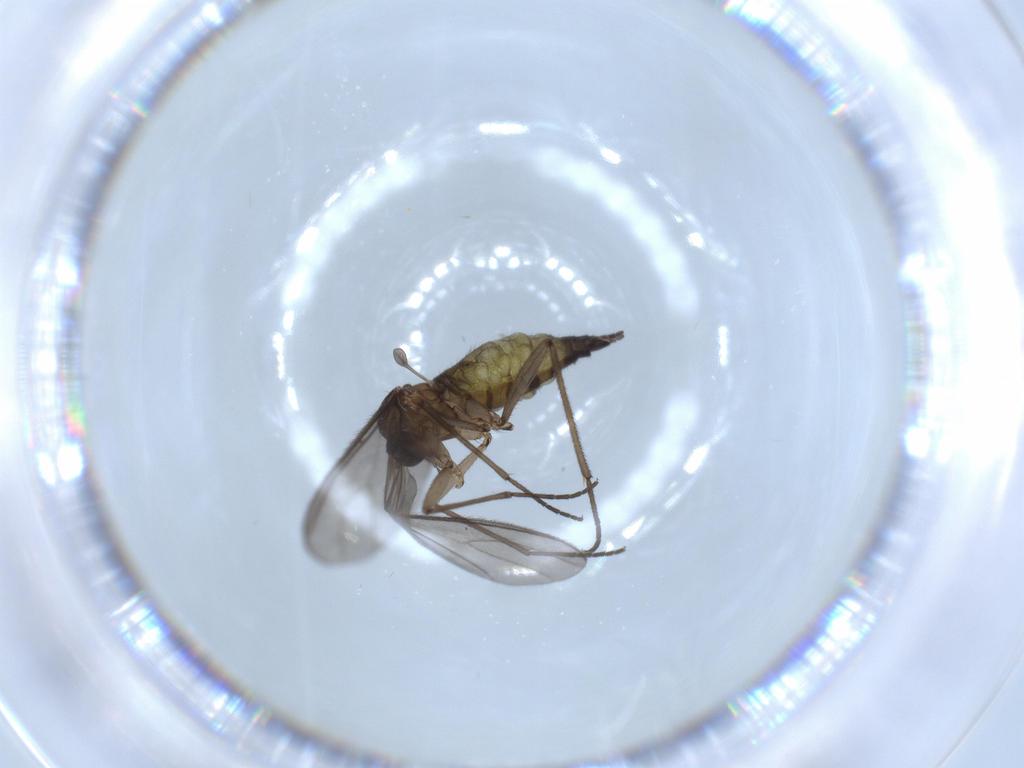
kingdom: Animalia
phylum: Arthropoda
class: Insecta
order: Diptera
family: Sciaridae
